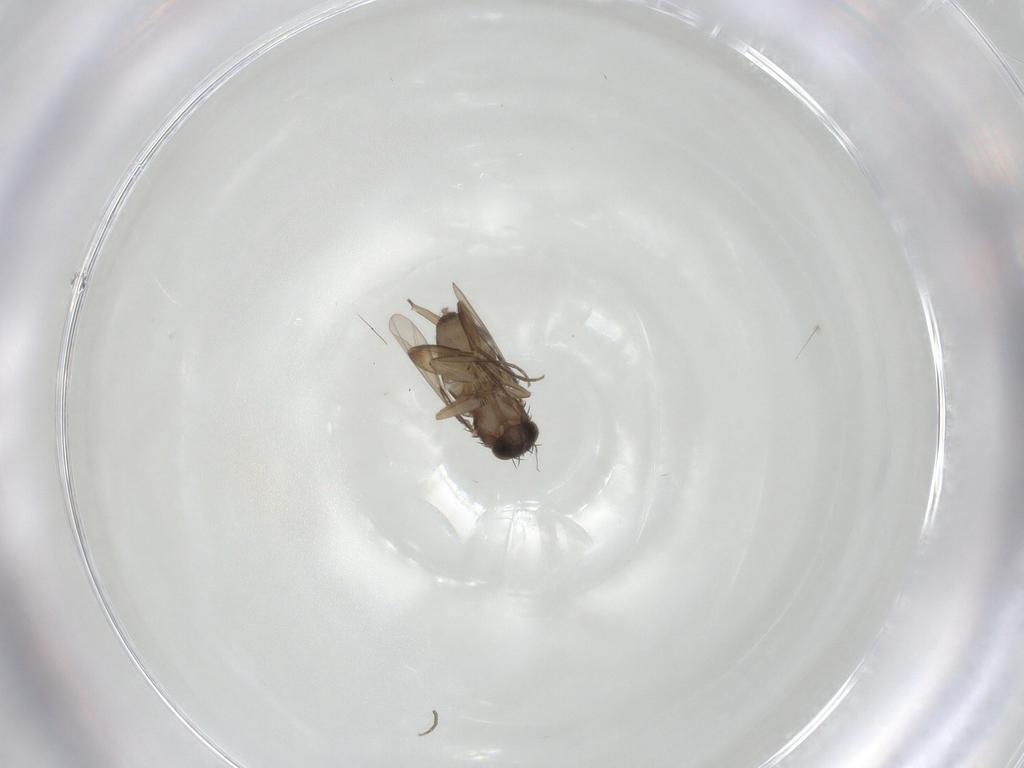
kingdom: Animalia
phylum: Arthropoda
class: Insecta
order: Diptera
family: Phoridae
